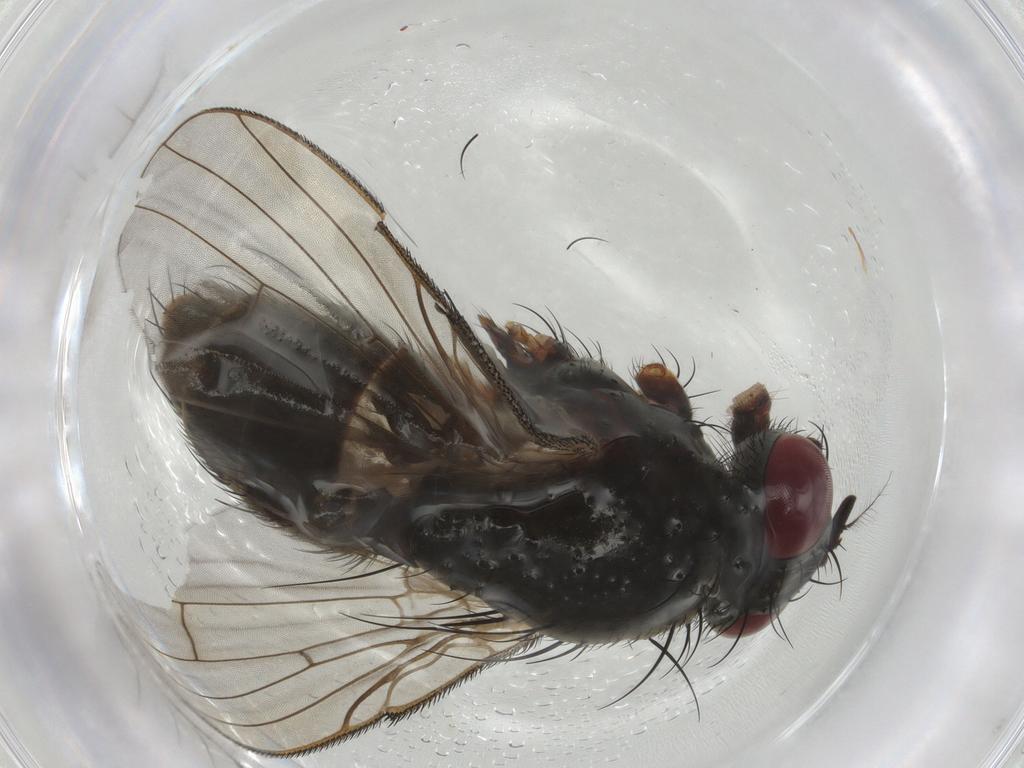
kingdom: Animalia
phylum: Arthropoda
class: Insecta
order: Diptera
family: Muscidae
